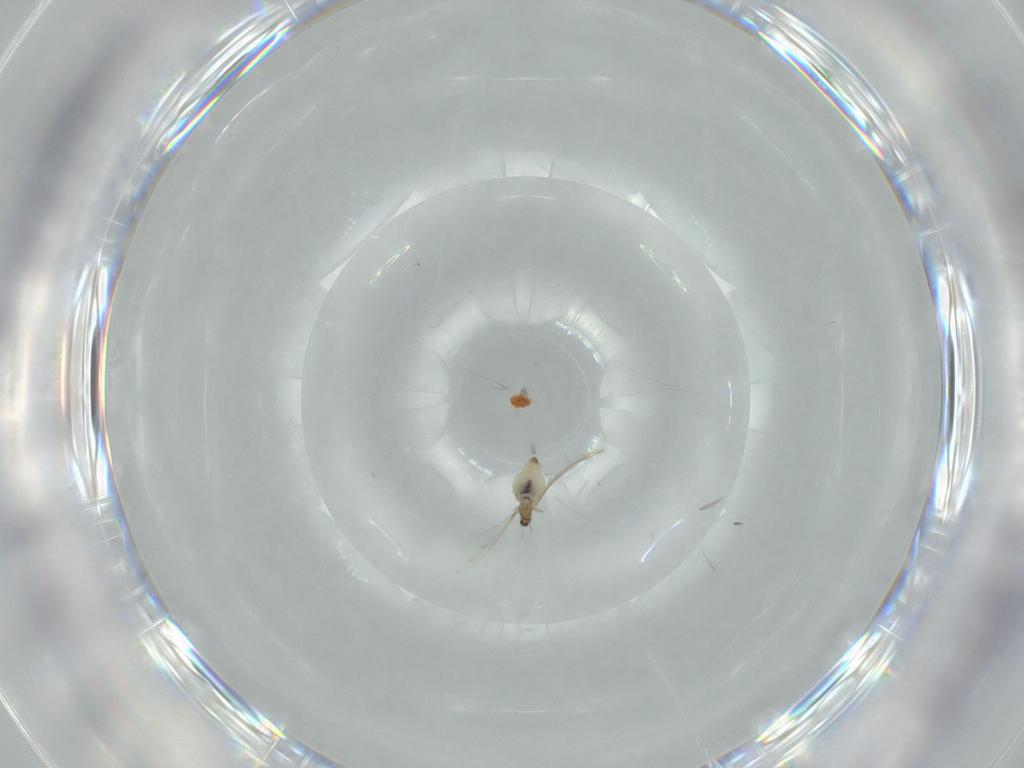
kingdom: Animalia
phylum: Arthropoda
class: Insecta
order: Diptera
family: Cecidomyiidae
